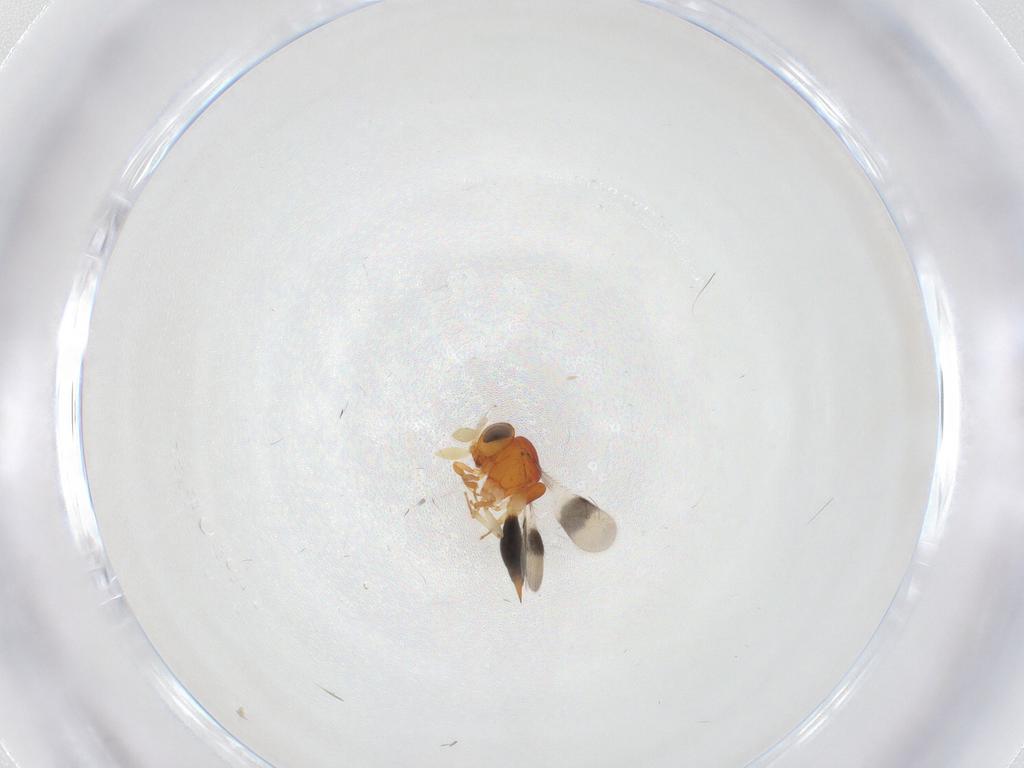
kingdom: Animalia
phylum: Arthropoda
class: Insecta
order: Hymenoptera
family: Scelionidae
